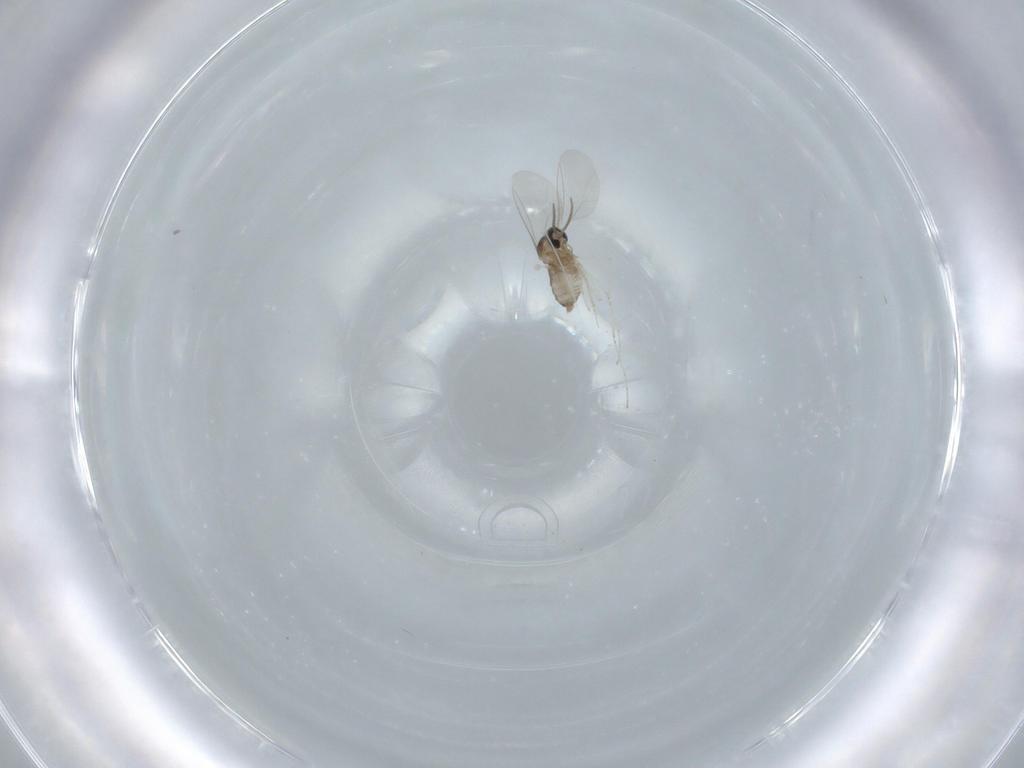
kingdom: Animalia
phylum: Arthropoda
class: Insecta
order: Diptera
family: Cecidomyiidae
